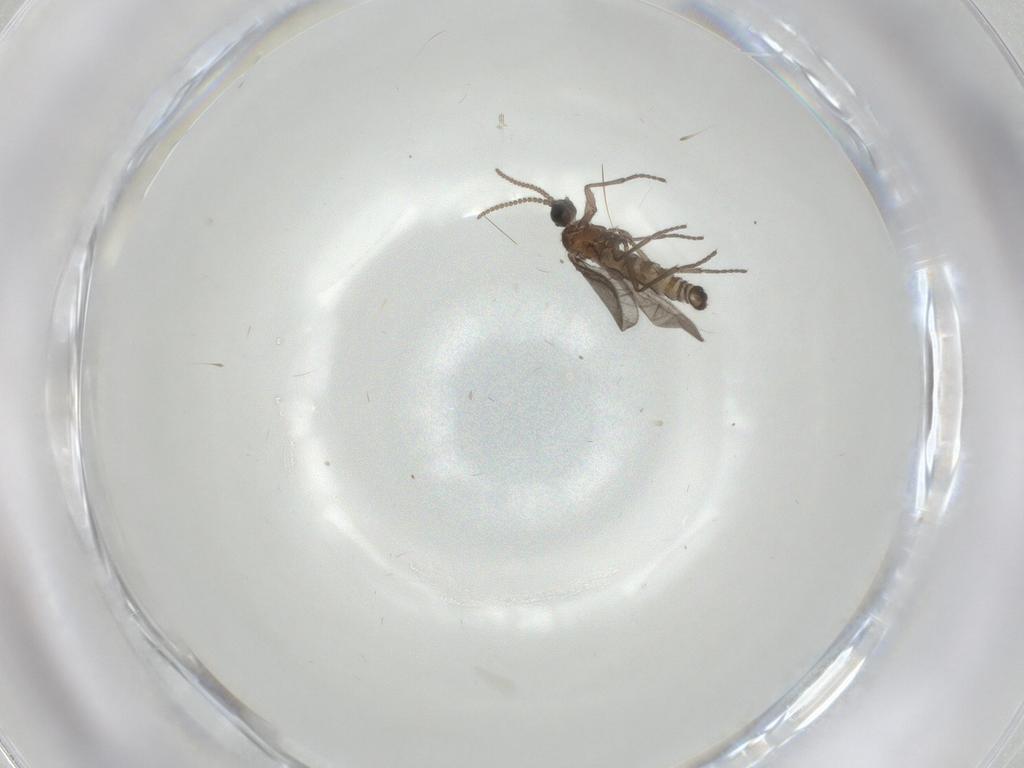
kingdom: Animalia
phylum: Arthropoda
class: Insecta
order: Diptera
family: Sciaridae
